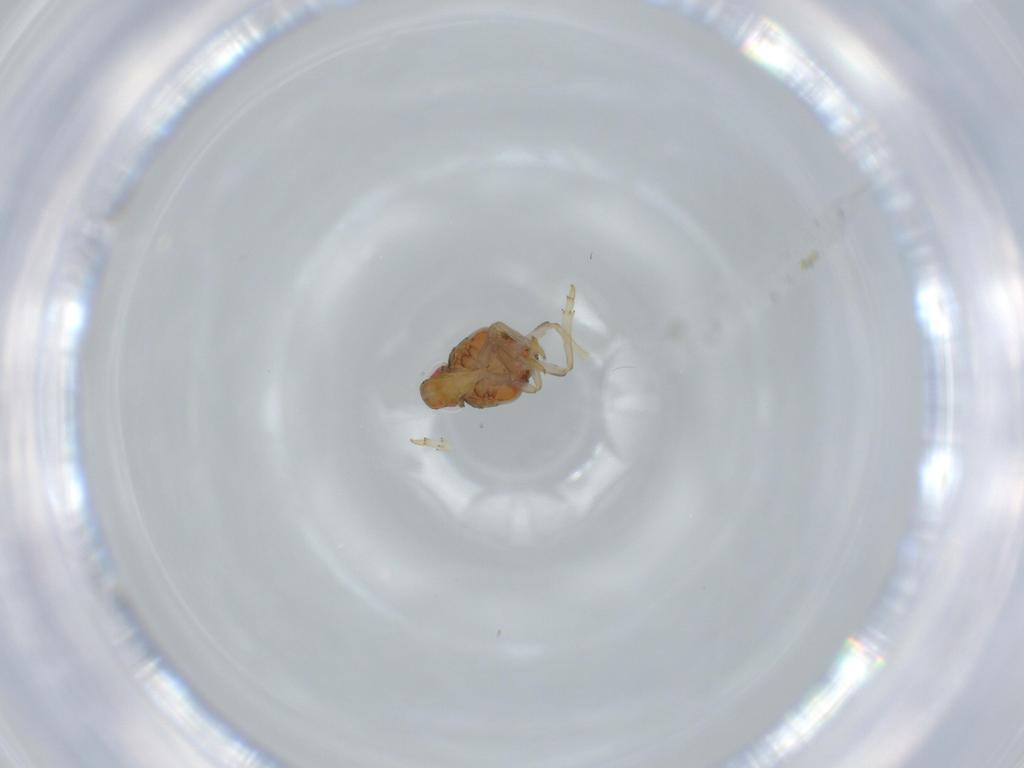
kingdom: Animalia
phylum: Arthropoda
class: Insecta
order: Hemiptera
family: Issidae
